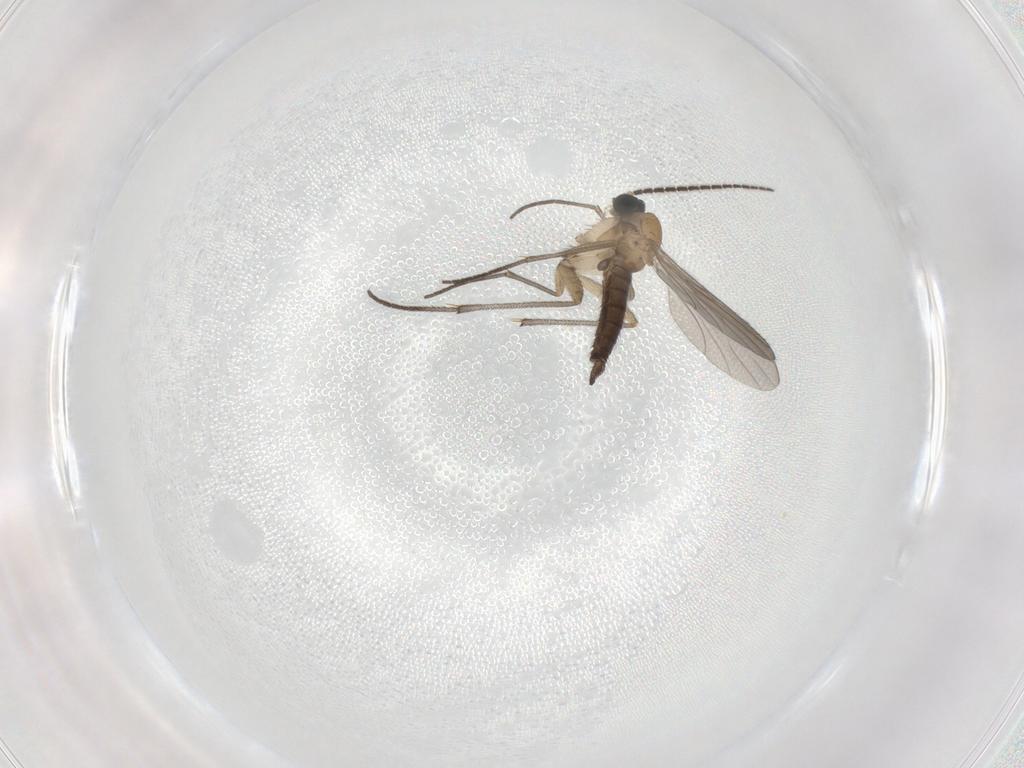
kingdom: Animalia
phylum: Arthropoda
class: Insecta
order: Diptera
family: Sciaridae
